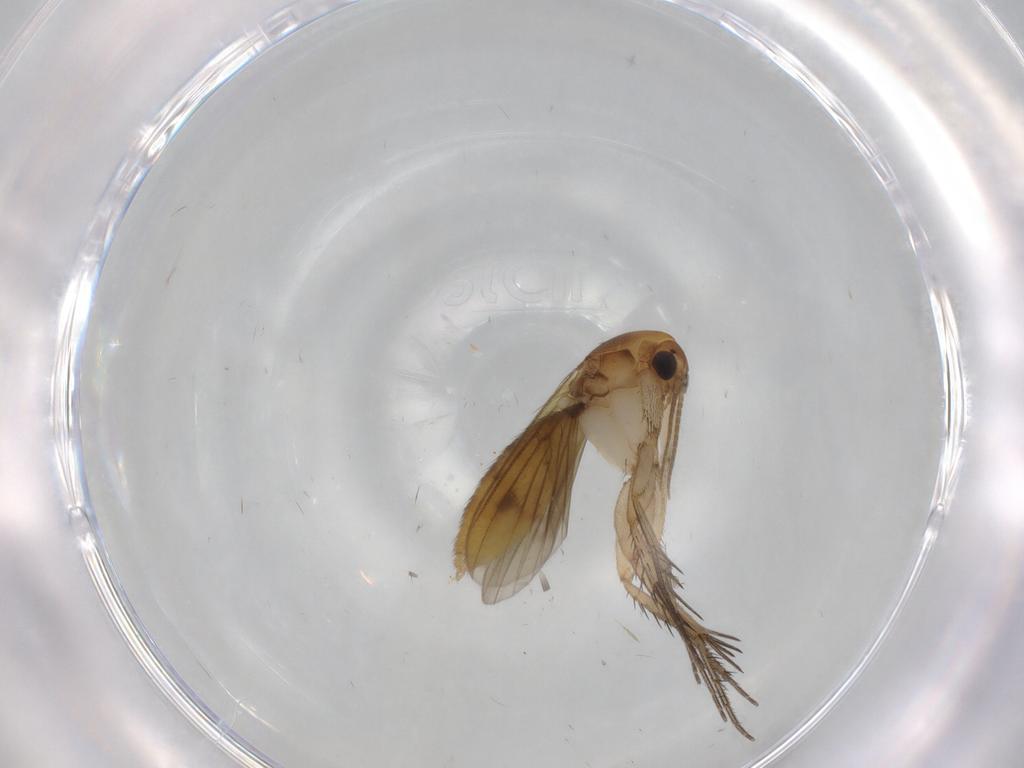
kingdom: Animalia
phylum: Arthropoda
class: Insecta
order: Diptera
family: Mycetophilidae
